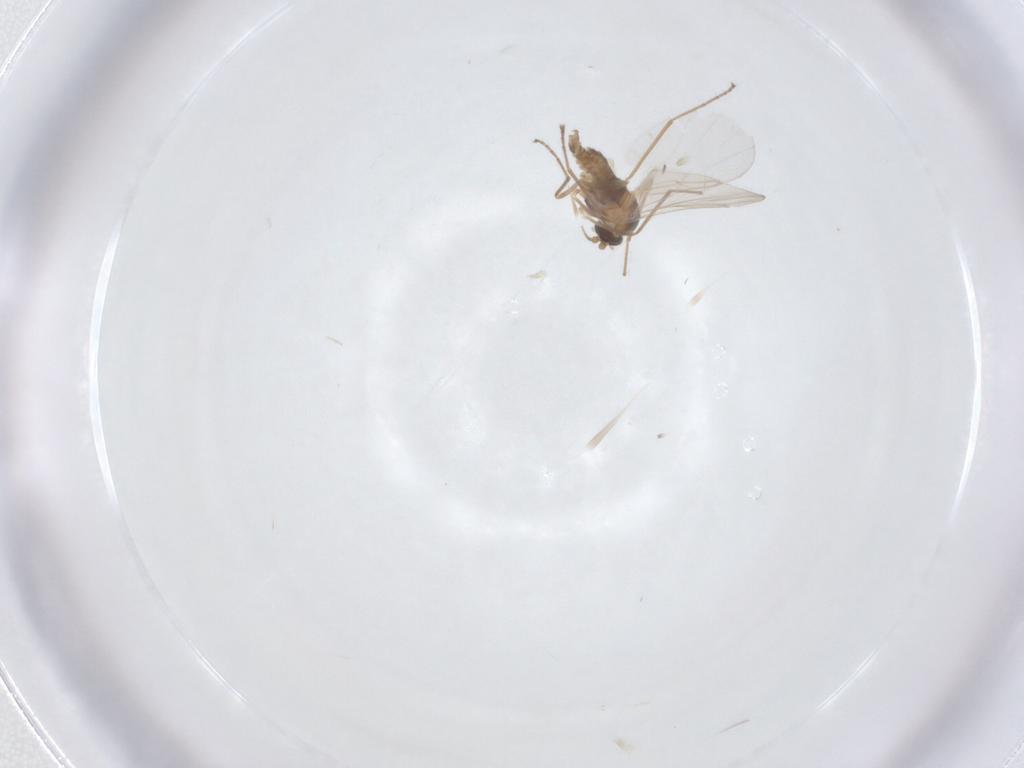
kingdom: Animalia
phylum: Arthropoda
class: Insecta
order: Diptera
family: Cecidomyiidae
